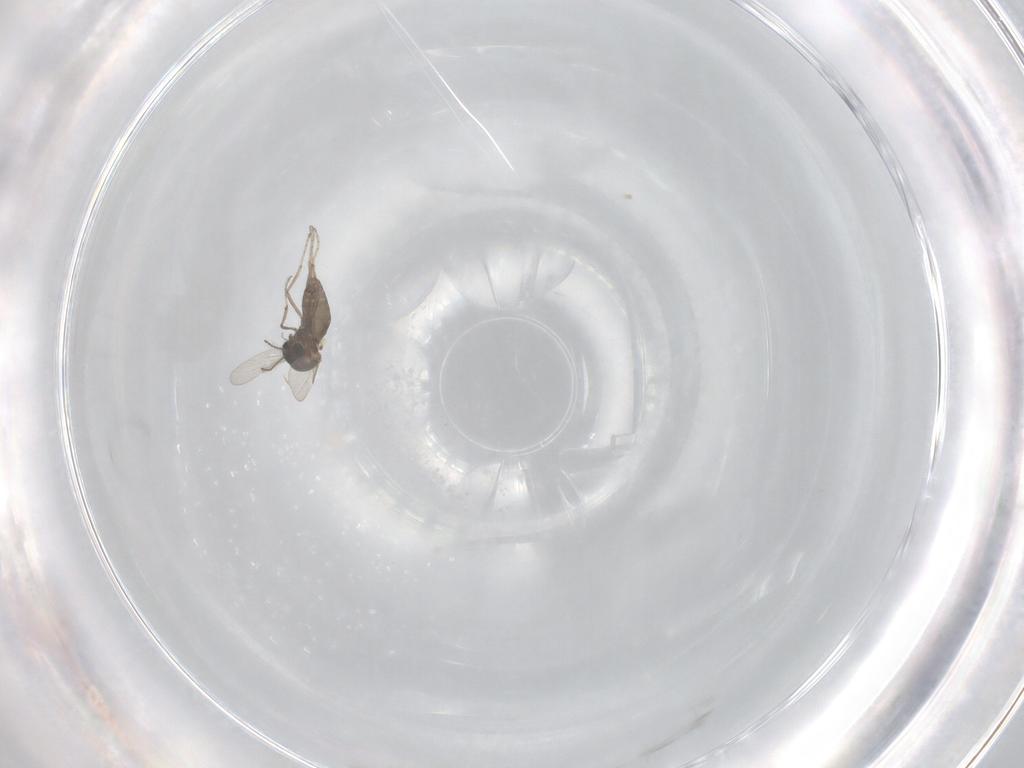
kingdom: Animalia
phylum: Arthropoda
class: Insecta
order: Diptera
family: Ceratopogonidae
